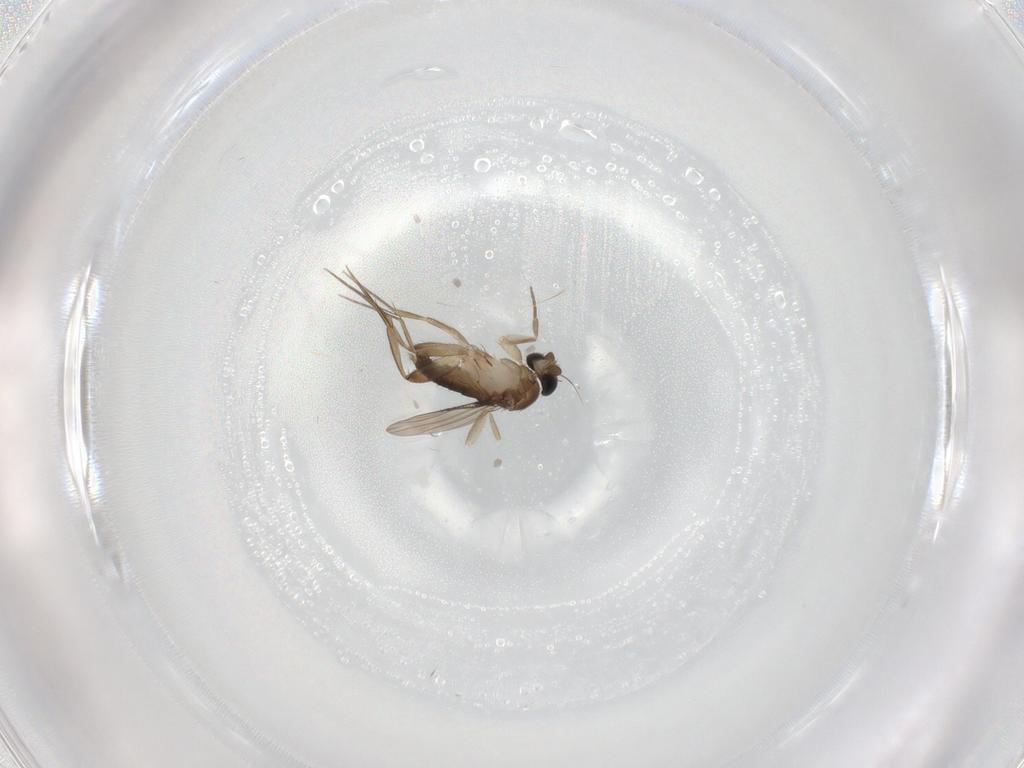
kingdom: Animalia
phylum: Arthropoda
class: Insecta
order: Diptera
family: Phoridae
